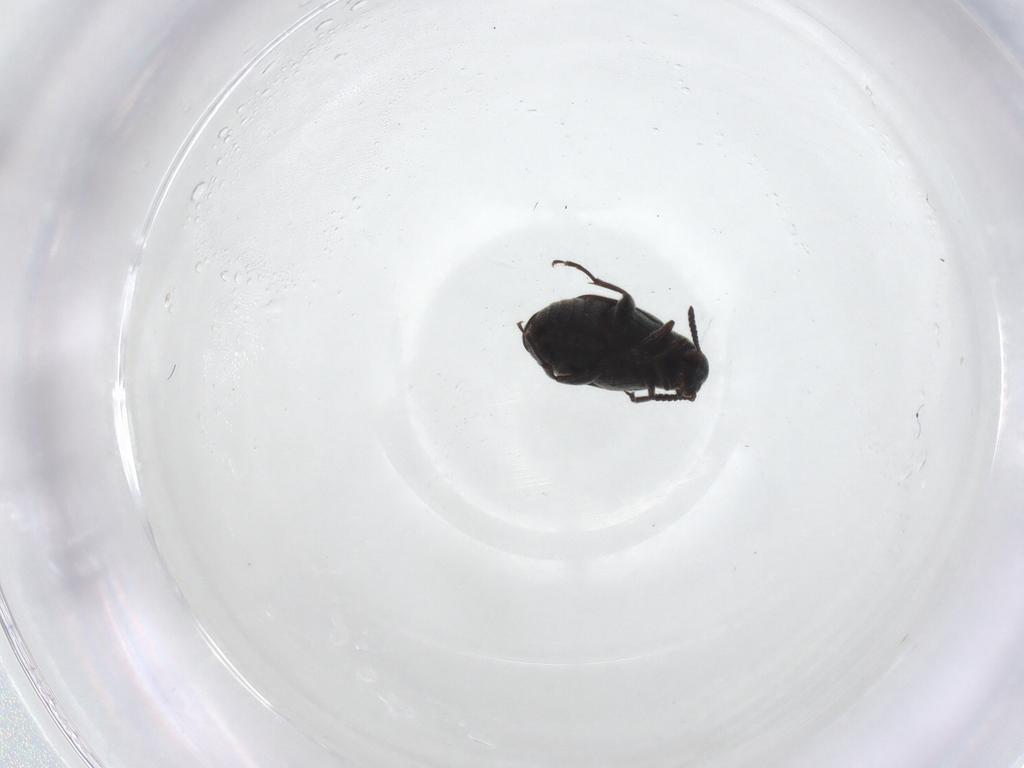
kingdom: Animalia
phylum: Arthropoda
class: Insecta
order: Coleoptera
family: Chrysomelidae
